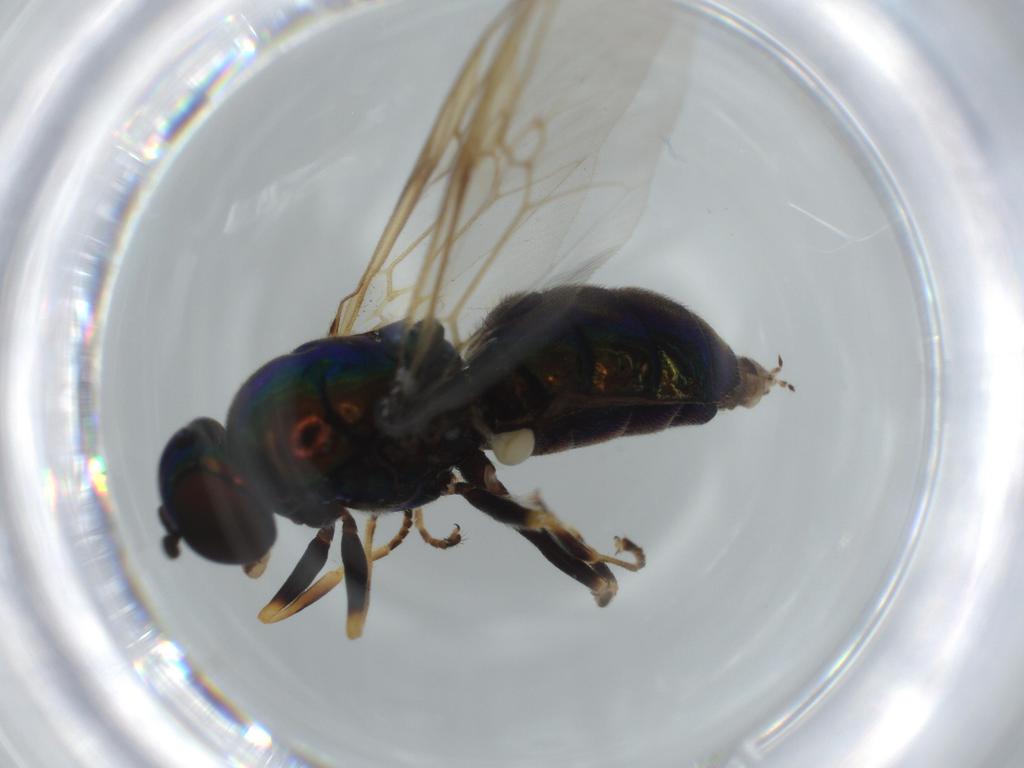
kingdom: Animalia
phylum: Arthropoda
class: Insecta
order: Diptera
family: Stratiomyidae
